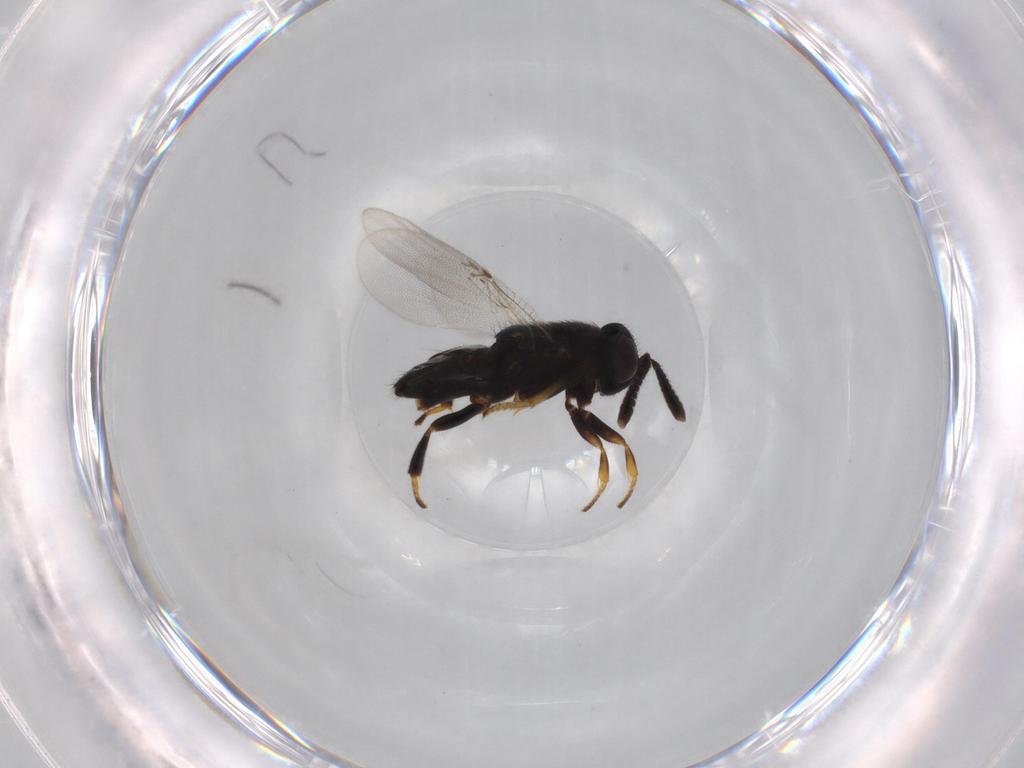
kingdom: Animalia
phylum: Arthropoda
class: Insecta
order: Hymenoptera
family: Encyrtidae
